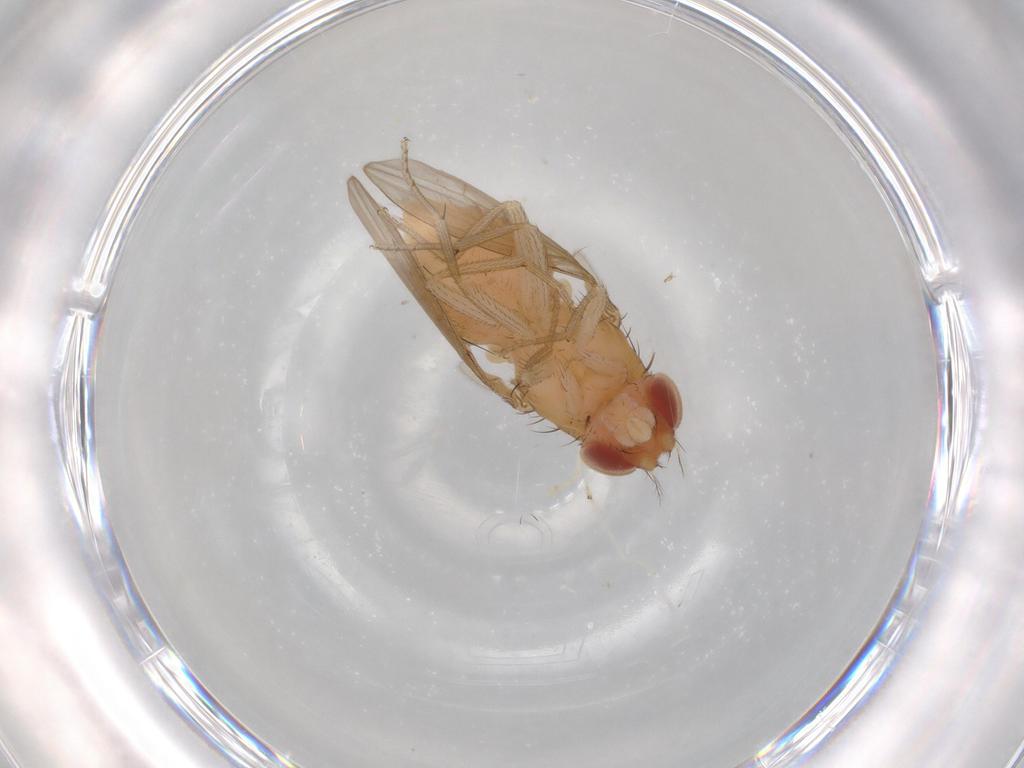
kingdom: Animalia
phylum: Arthropoda
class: Insecta
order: Diptera
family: Drosophilidae
